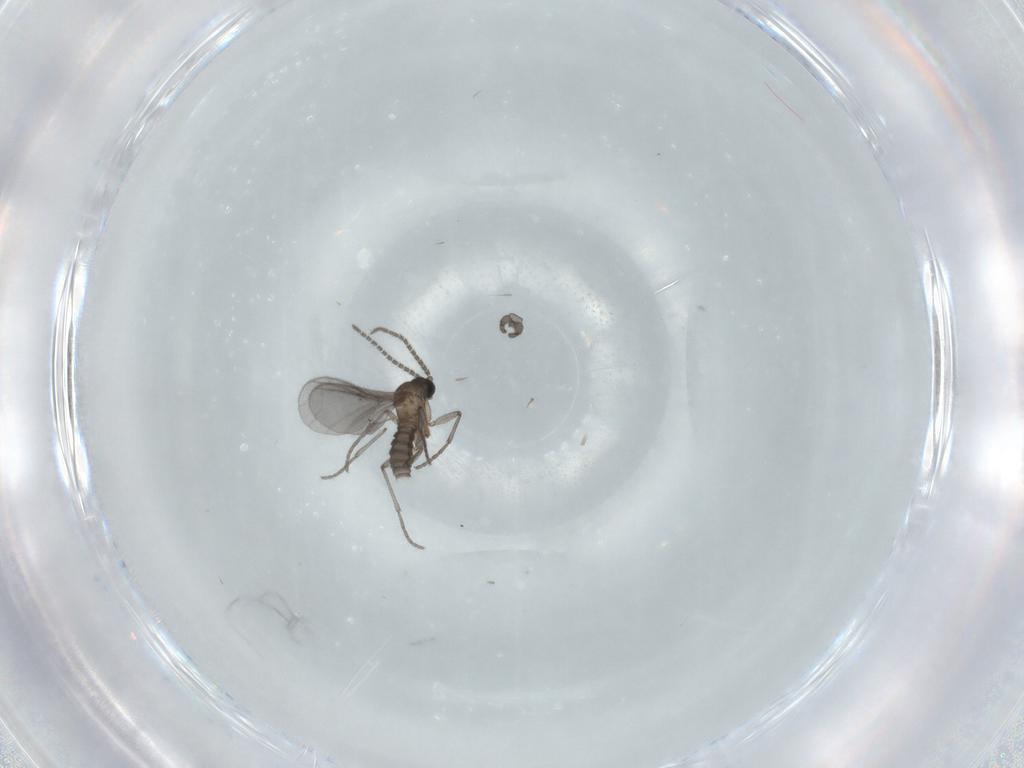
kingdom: Animalia
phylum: Arthropoda
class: Insecta
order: Diptera
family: Sciaridae
